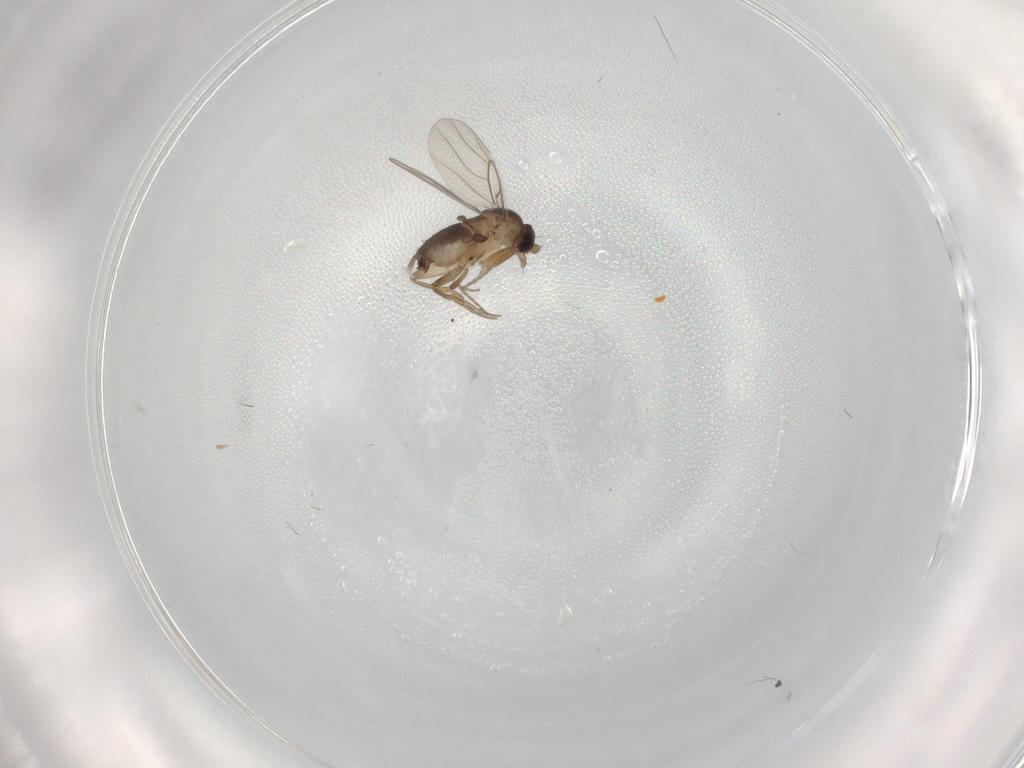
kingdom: Animalia
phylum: Arthropoda
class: Insecta
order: Diptera
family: Phoridae
